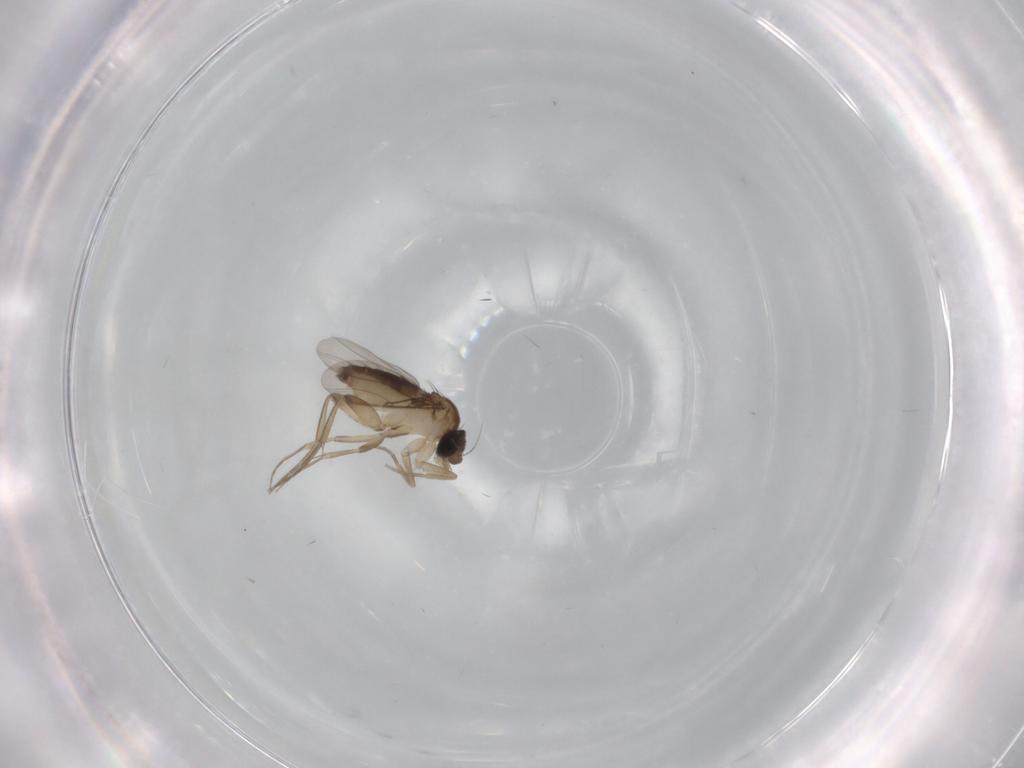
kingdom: Animalia
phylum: Arthropoda
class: Insecta
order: Diptera
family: Phoridae
